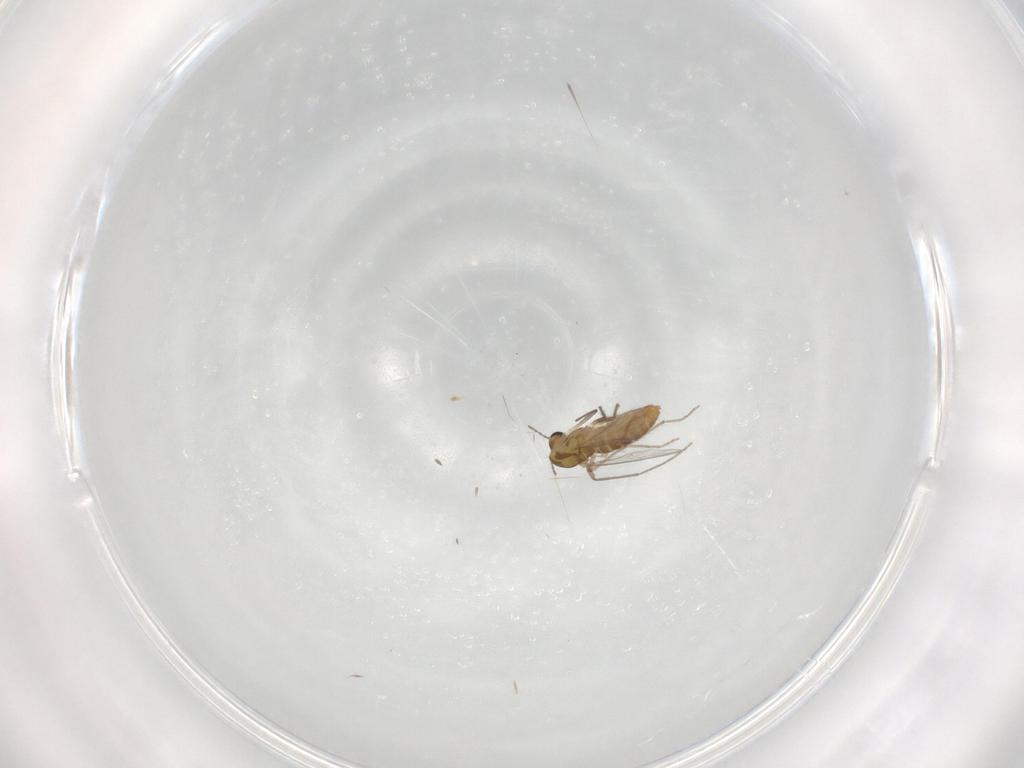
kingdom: Animalia
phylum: Arthropoda
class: Insecta
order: Diptera
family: Chironomidae
